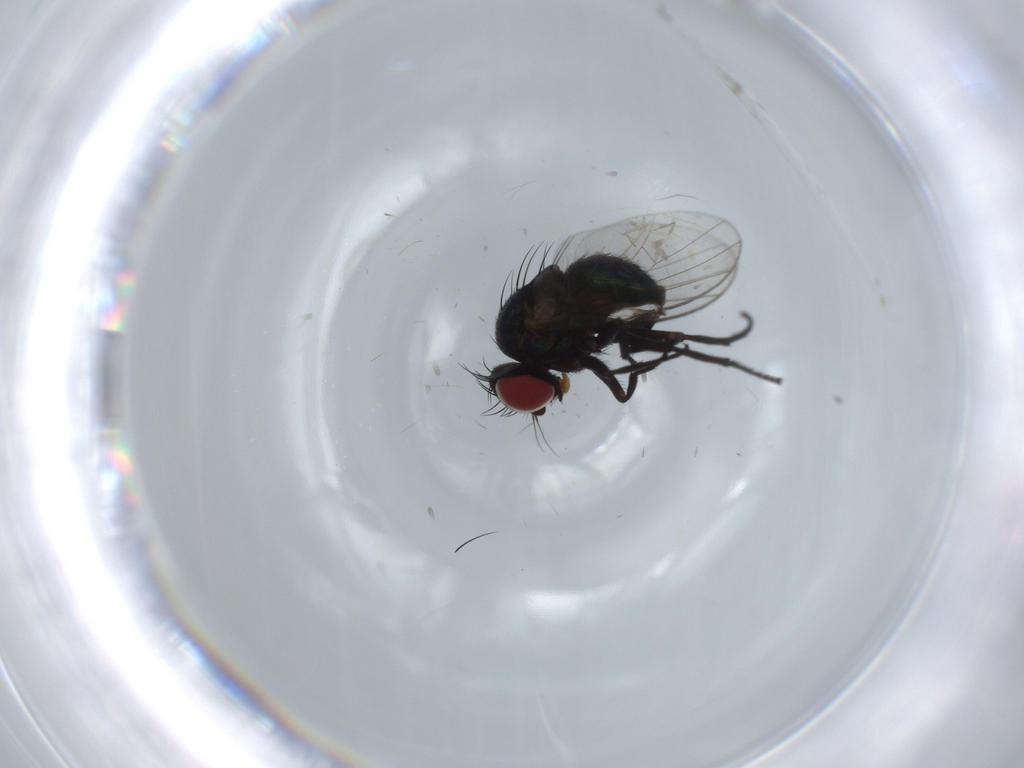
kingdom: Animalia
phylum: Arthropoda
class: Insecta
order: Diptera
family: Agromyzidae
